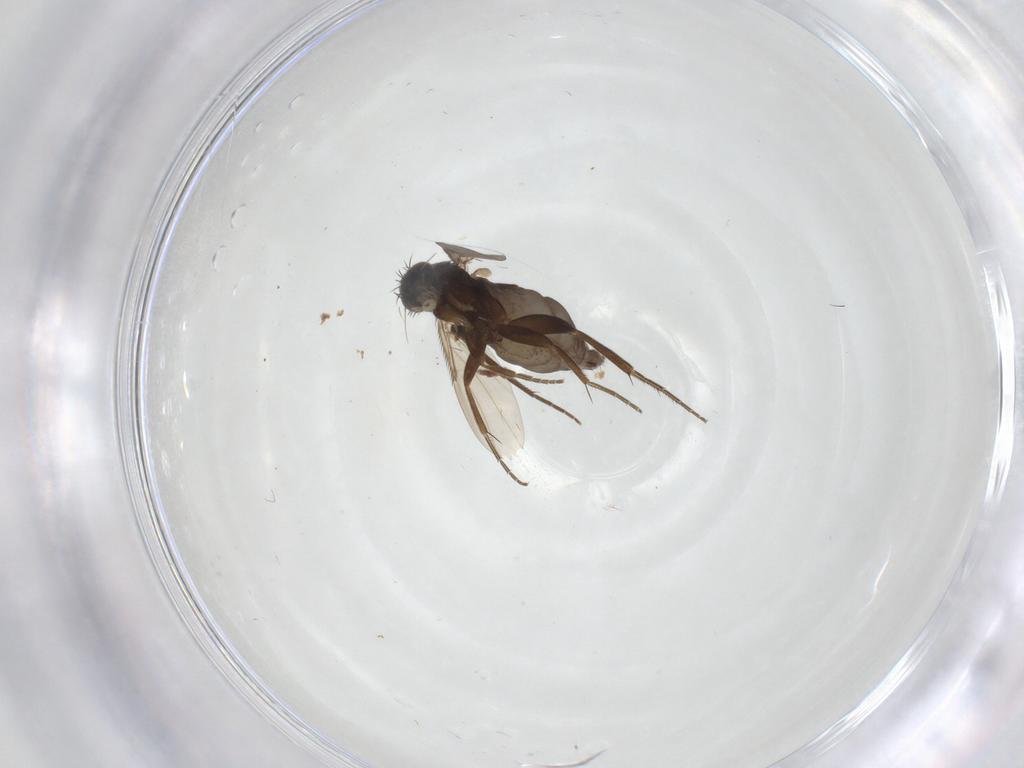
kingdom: Animalia
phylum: Arthropoda
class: Insecta
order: Diptera
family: Phoridae
